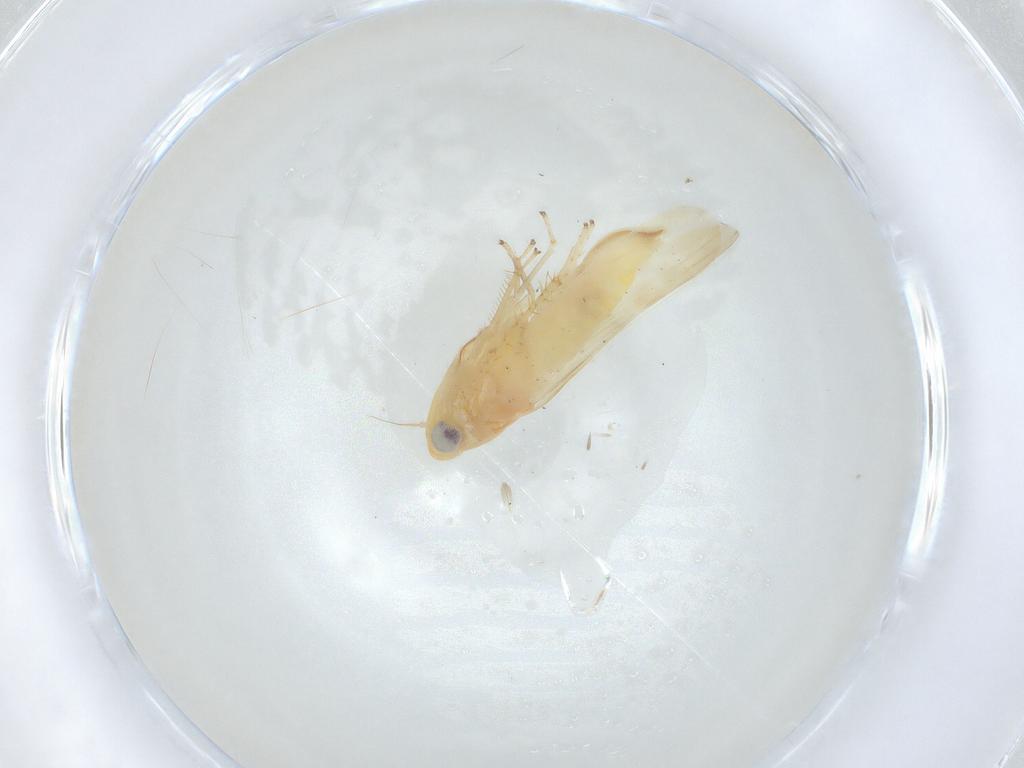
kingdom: Animalia
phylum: Arthropoda
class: Insecta
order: Hemiptera
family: Cicadellidae
